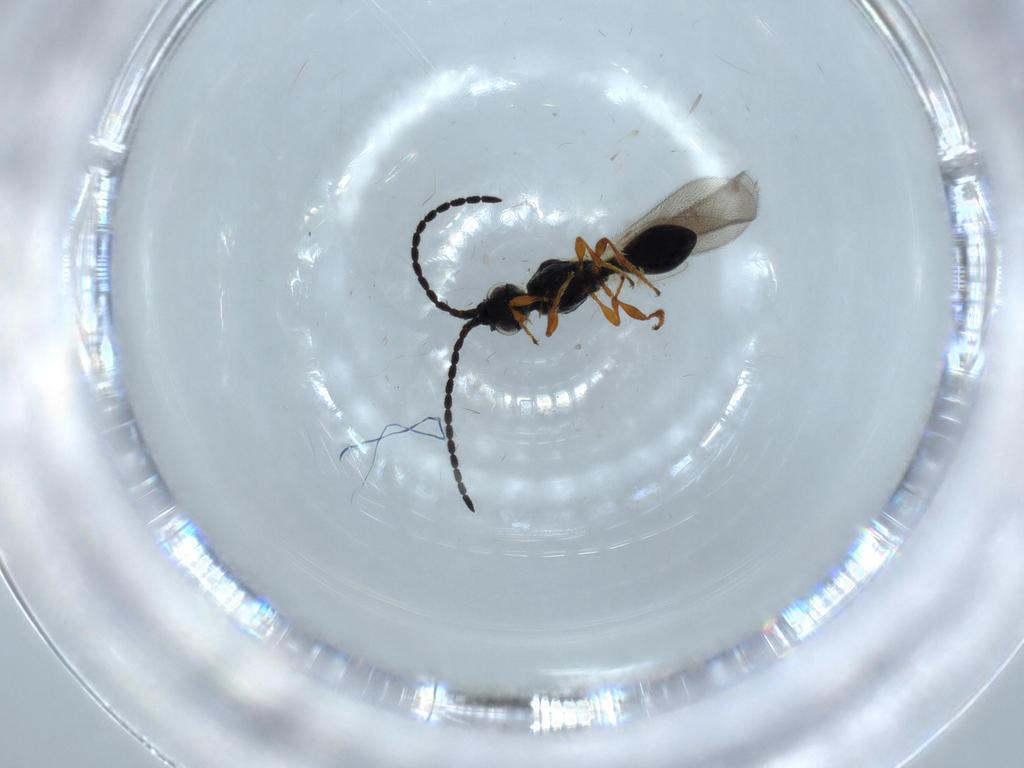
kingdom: Animalia
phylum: Arthropoda
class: Insecta
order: Hymenoptera
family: Diapriidae
